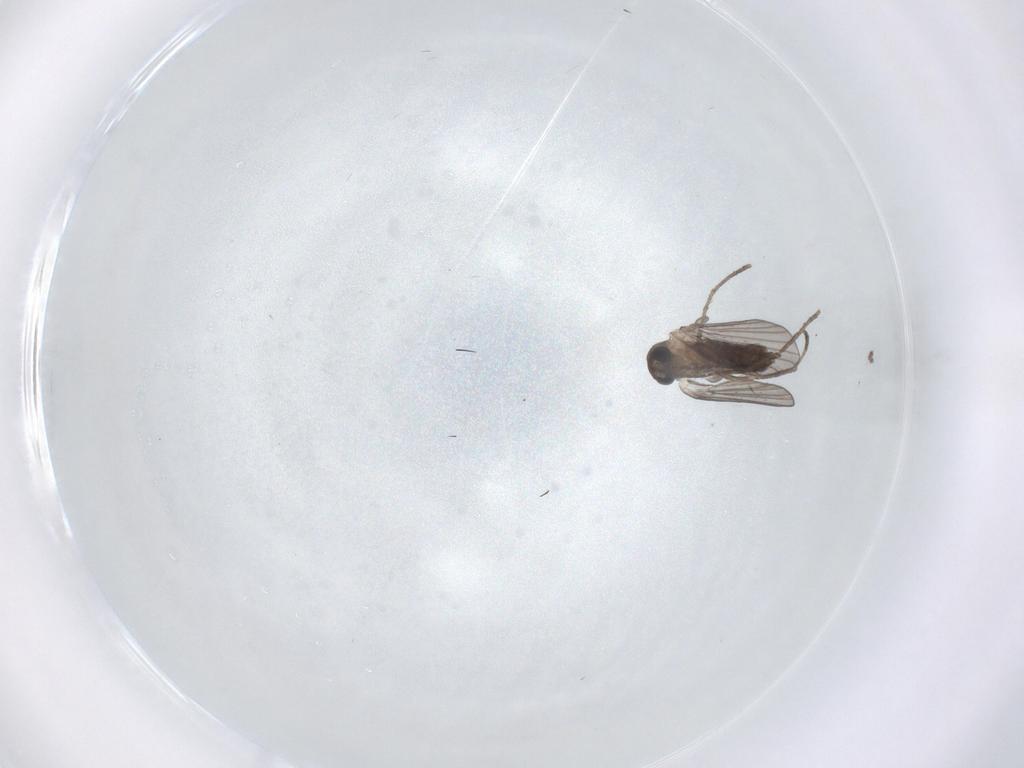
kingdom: Animalia
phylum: Arthropoda
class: Insecta
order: Diptera
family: Psychodidae
